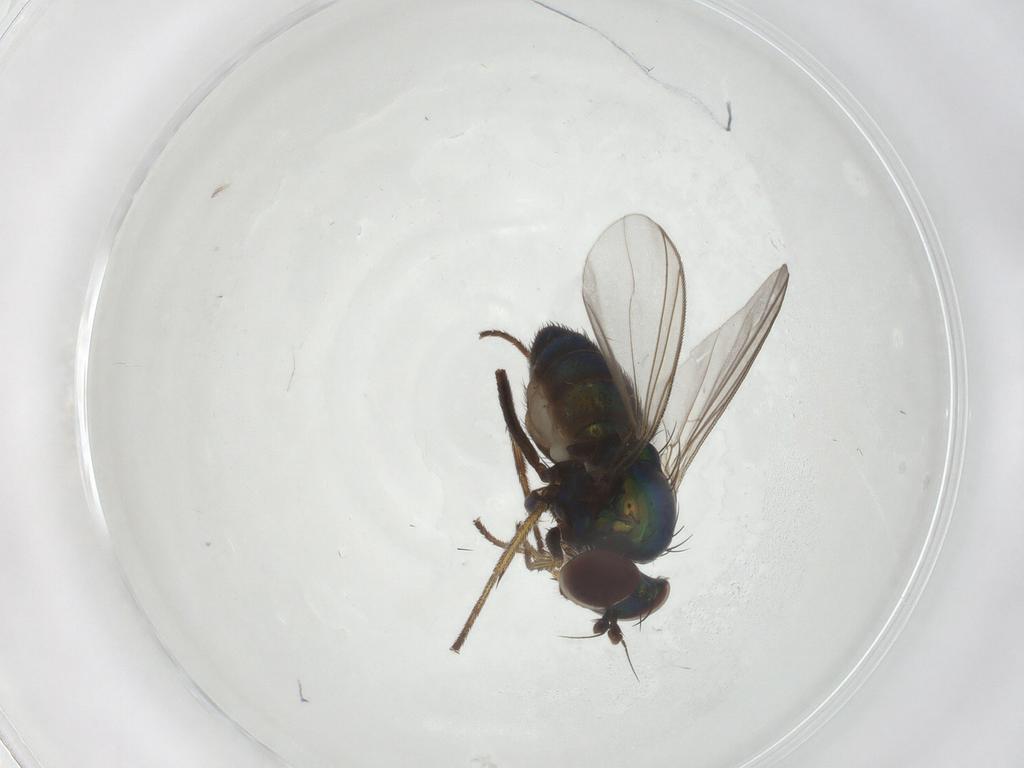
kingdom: Animalia
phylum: Arthropoda
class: Insecta
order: Diptera
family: Dolichopodidae
